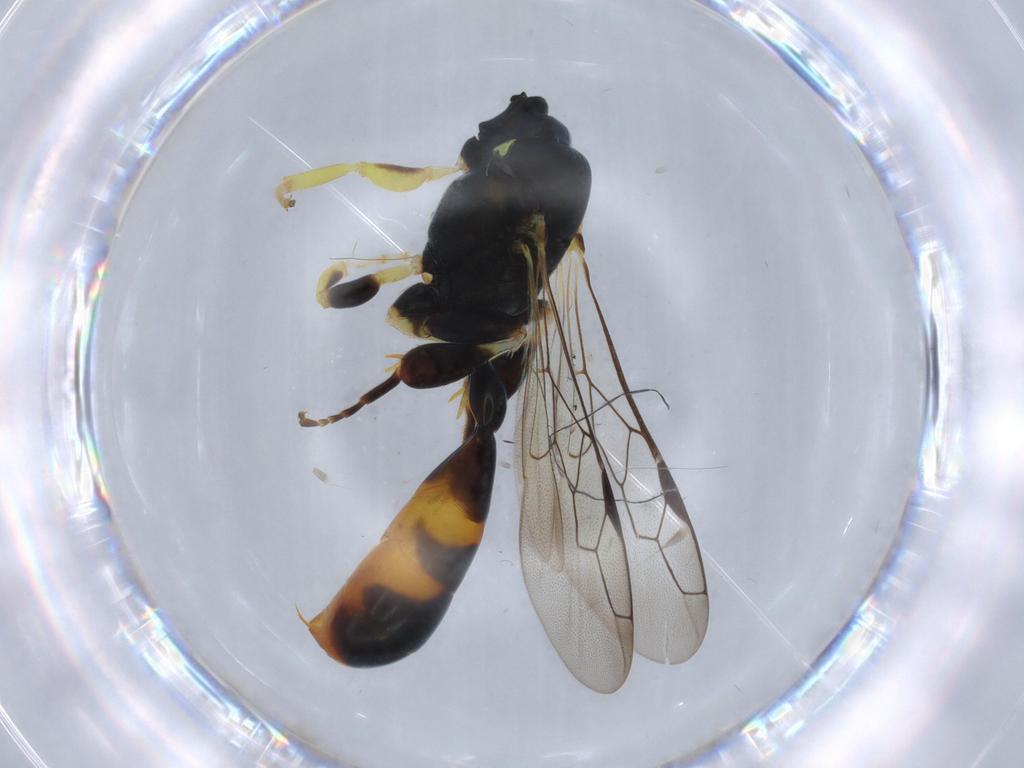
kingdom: Animalia
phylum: Arthropoda
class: Insecta
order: Hymenoptera
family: Crabronidae
